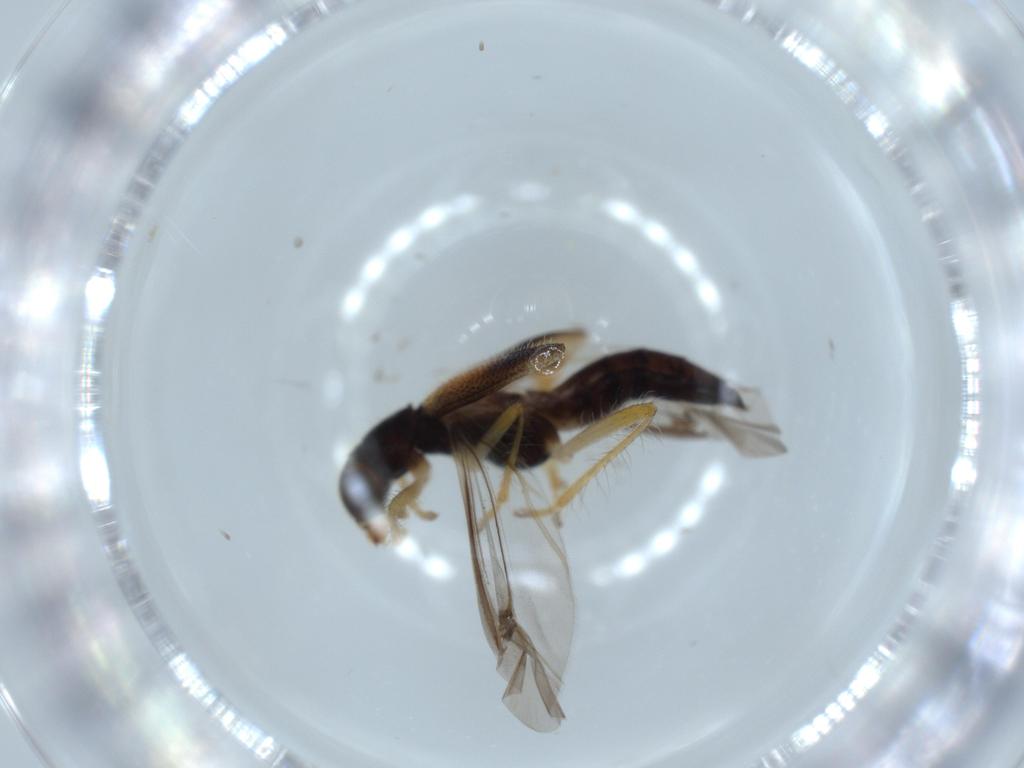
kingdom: Animalia
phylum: Arthropoda
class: Insecta
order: Coleoptera
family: Cleridae
